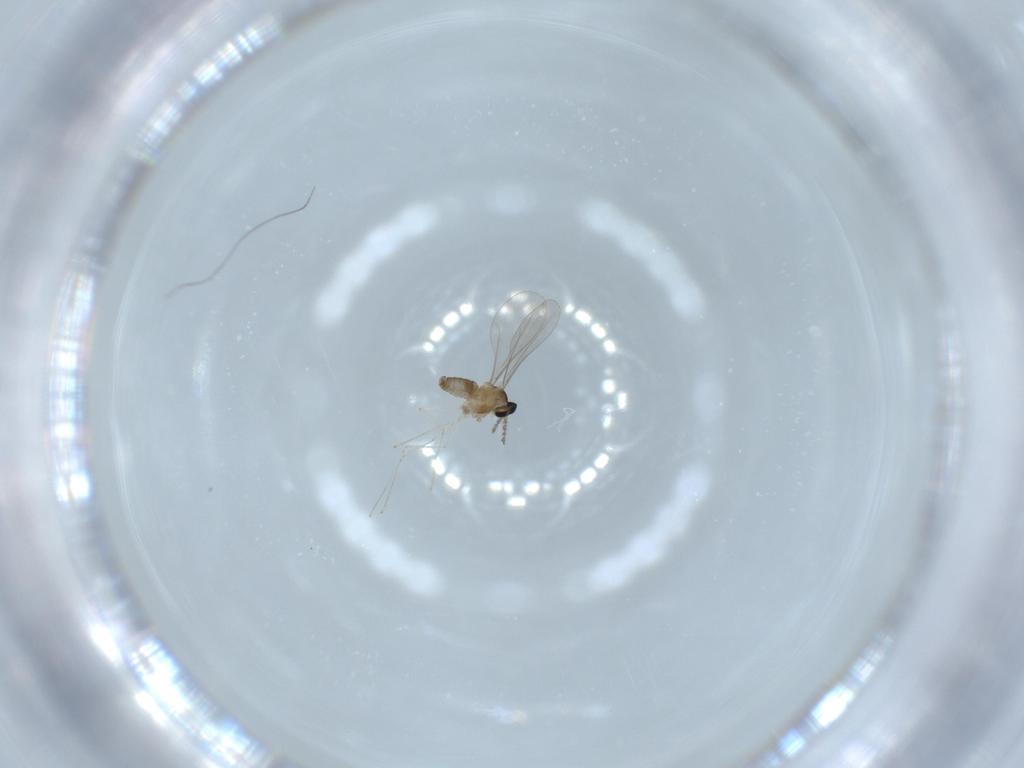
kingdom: Animalia
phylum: Arthropoda
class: Insecta
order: Diptera
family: Cecidomyiidae
